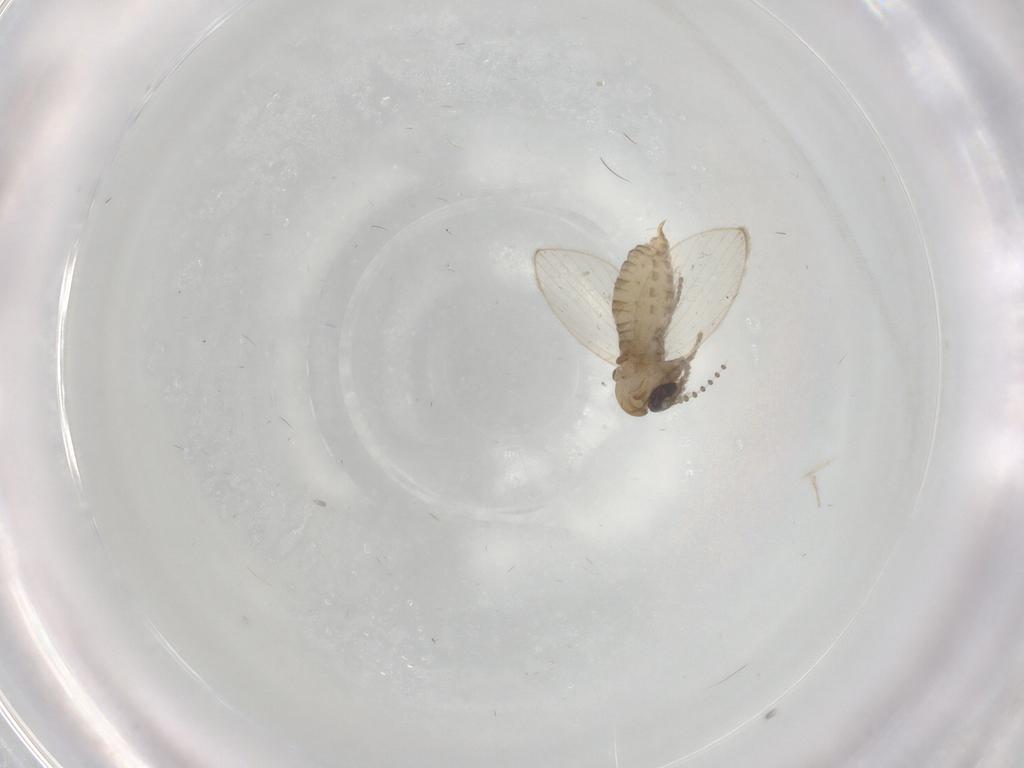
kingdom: Animalia
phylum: Arthropoda
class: Insecta
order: Diptera
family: Psychodidae
